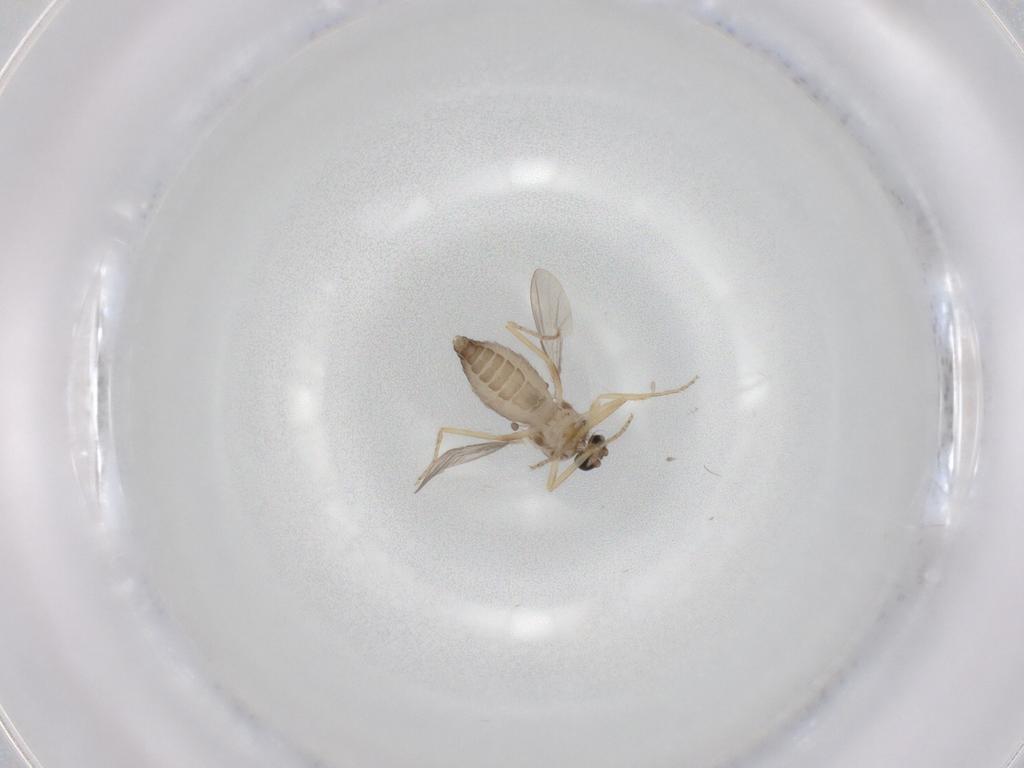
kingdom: Animalia
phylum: Arthropoda
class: Insecta
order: Diptera
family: Ceratopogonidae
